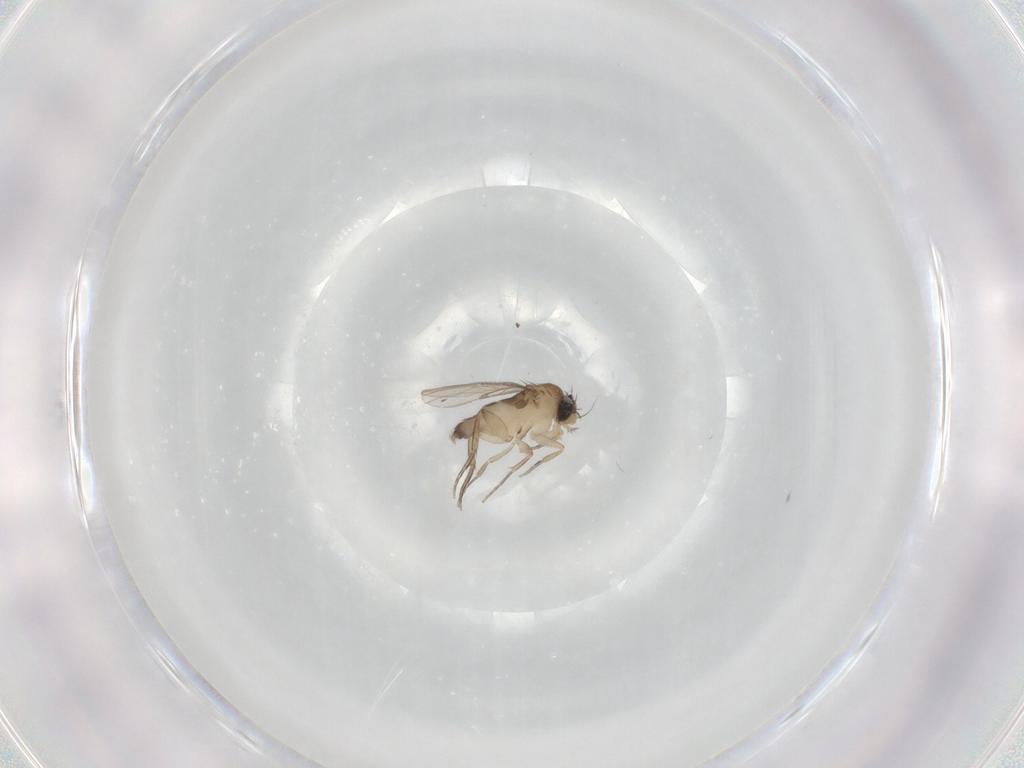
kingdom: Animalia
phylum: Arthropoda
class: Insecta
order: Diptera
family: Phoridae
